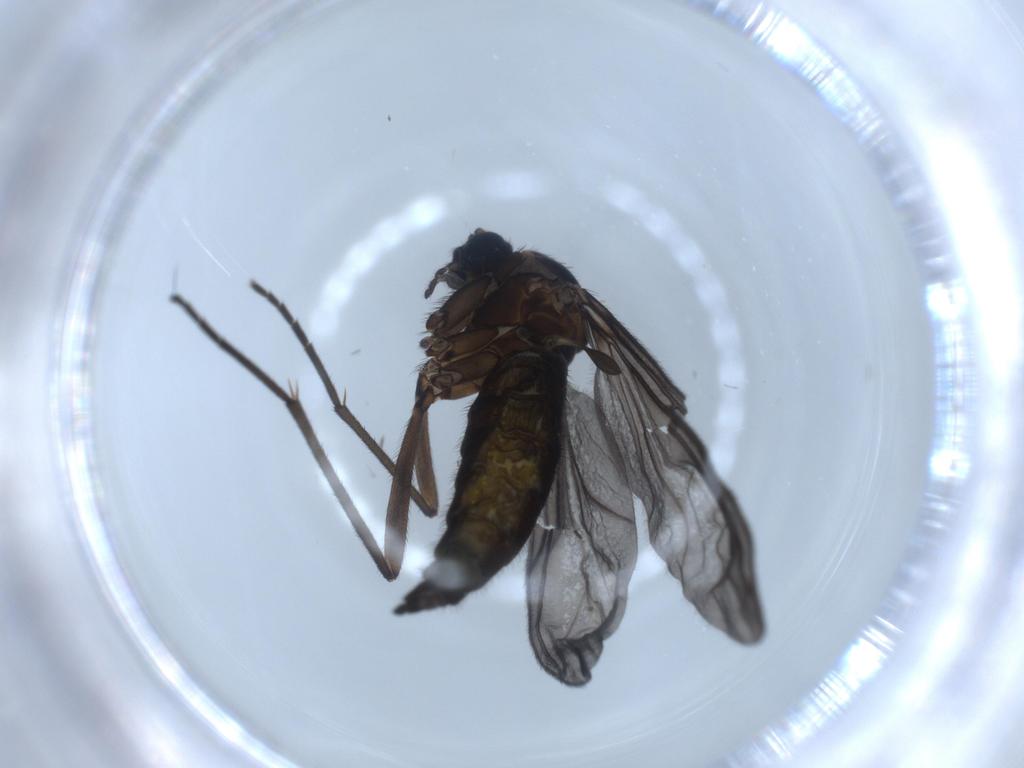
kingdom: Animalia
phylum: Arthropoda
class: Insecta
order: Diptera
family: Sciaridae
